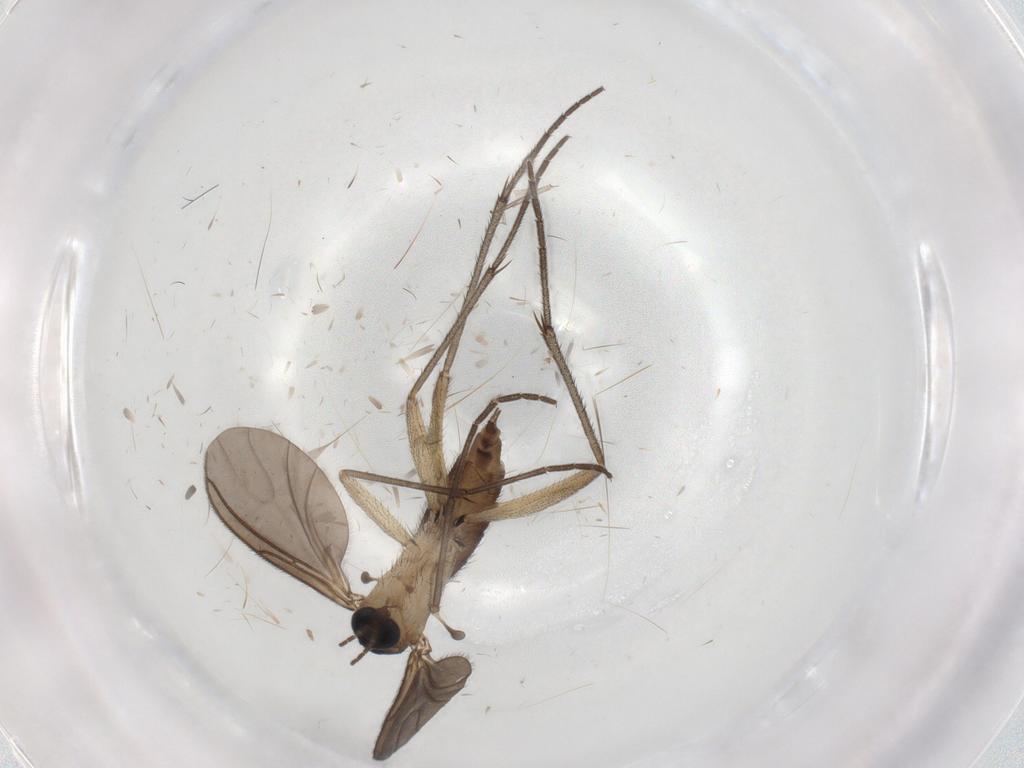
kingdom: Animalia
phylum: Arthropoda
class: Insecta
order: Diptera
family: Sciaridae
